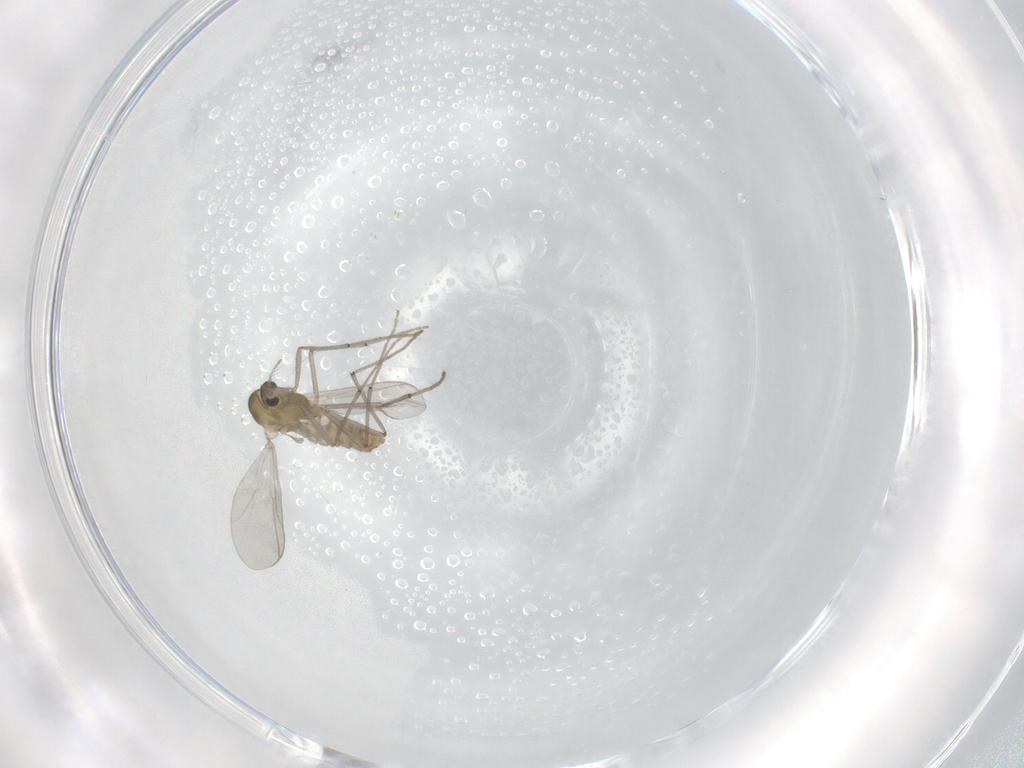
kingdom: Animalia
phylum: Arthropoda
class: Insecta
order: Diptera
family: Chironomidae
